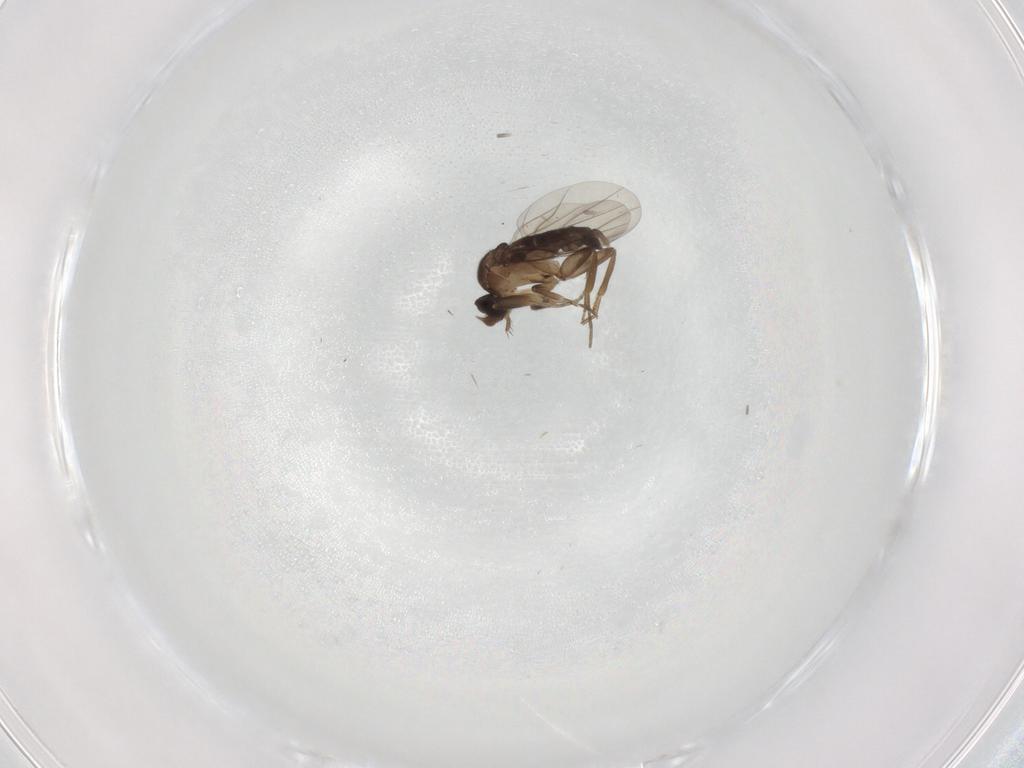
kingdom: Animalia
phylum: Arthropoda
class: Insecta
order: Diptera
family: Phoridae
